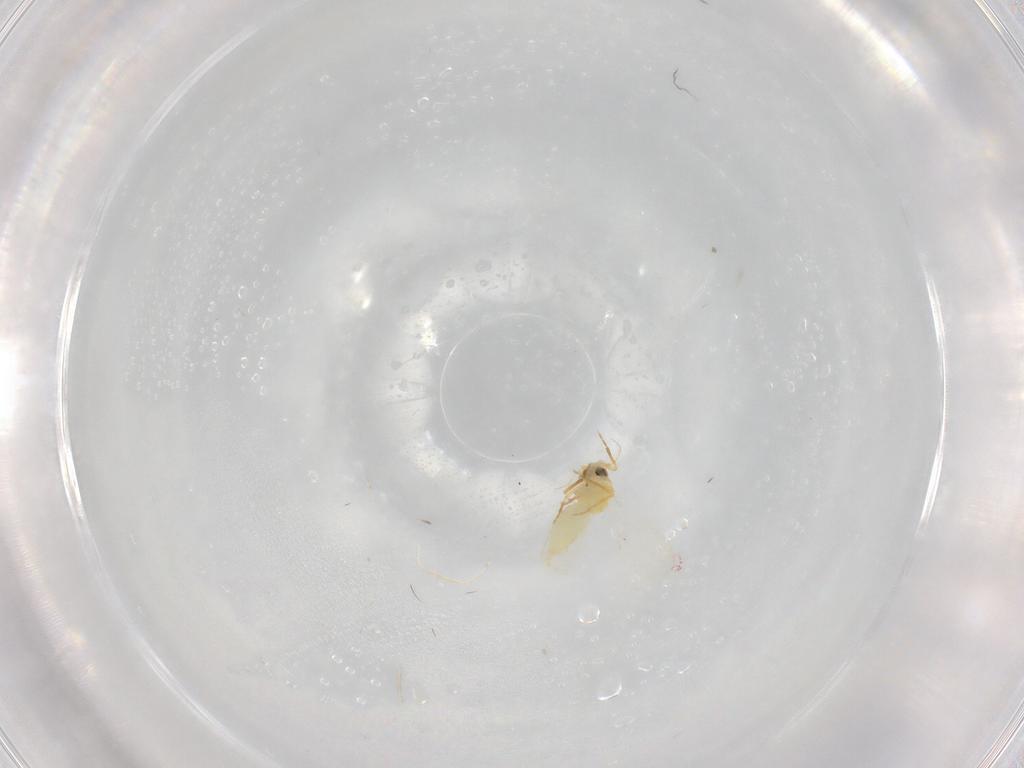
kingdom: Animalia
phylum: Arthropoda
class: Insecta
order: Hemiptera
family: Aleyrodidae
